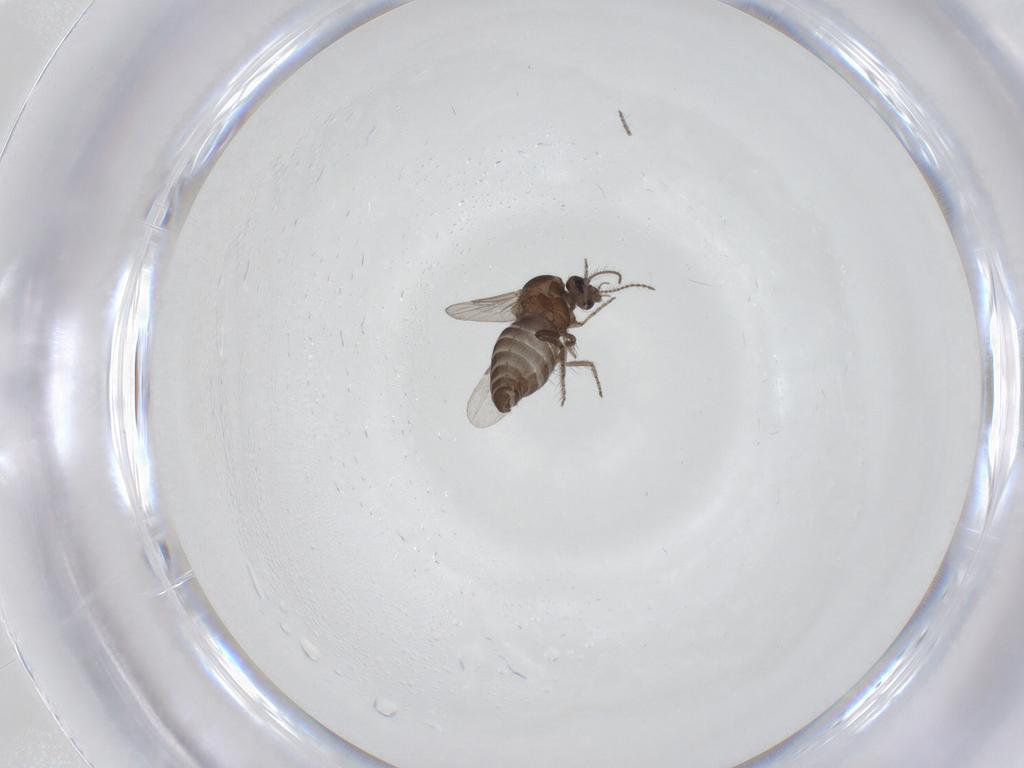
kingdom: Animalia
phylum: Arthropoda
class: Insecta
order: Diptera
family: Ceratopogonidae
